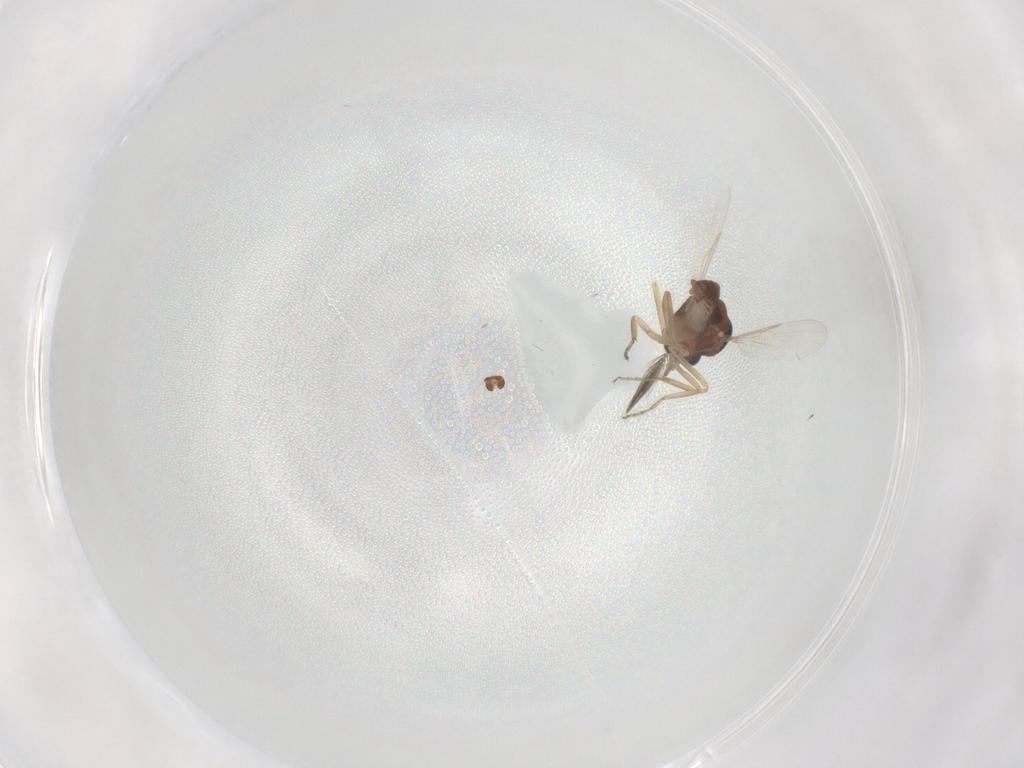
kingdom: Animalia
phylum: Arthropoda
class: Insecta
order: Diptera
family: Ceratopogonidae
